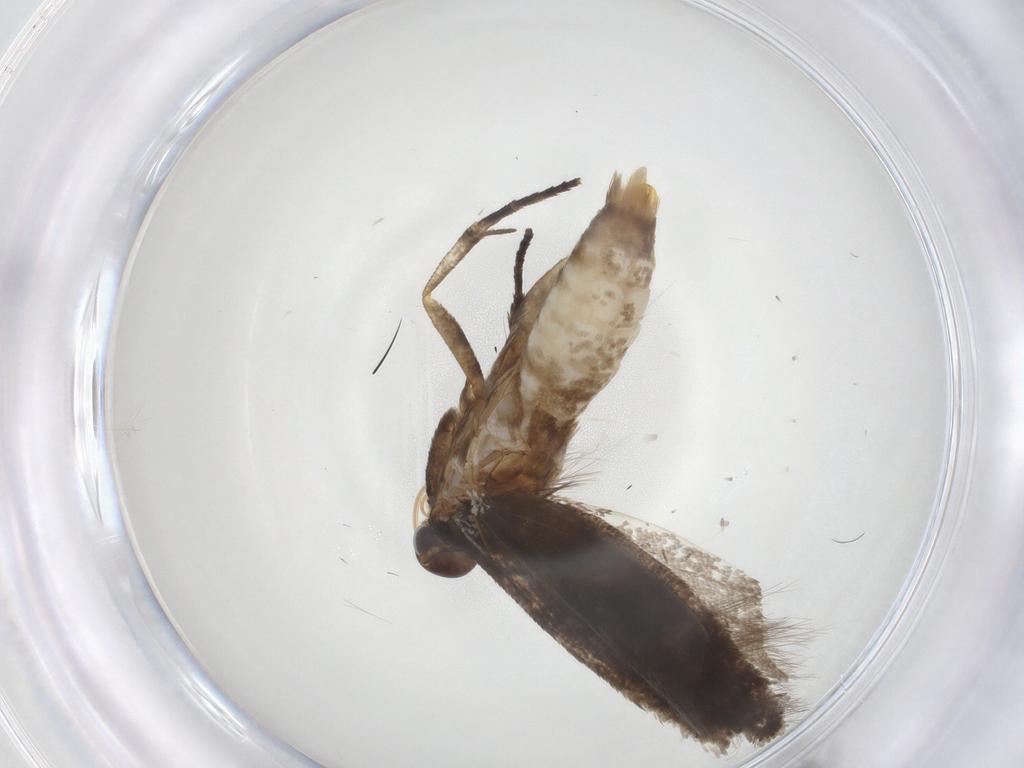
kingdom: Animalia
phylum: Arthropoda
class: Insecta
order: Lepidoptera
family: Gelechiidae
